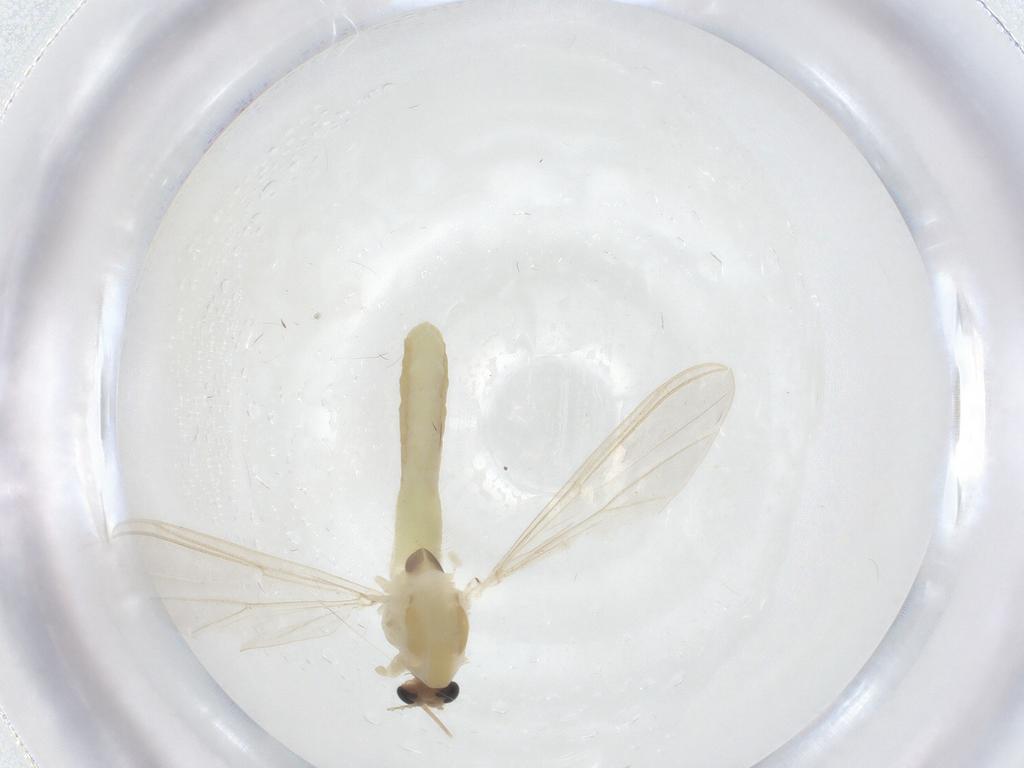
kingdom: Animalia
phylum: Arthropoda
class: Insecta
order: Diptera
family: Chironomidae
